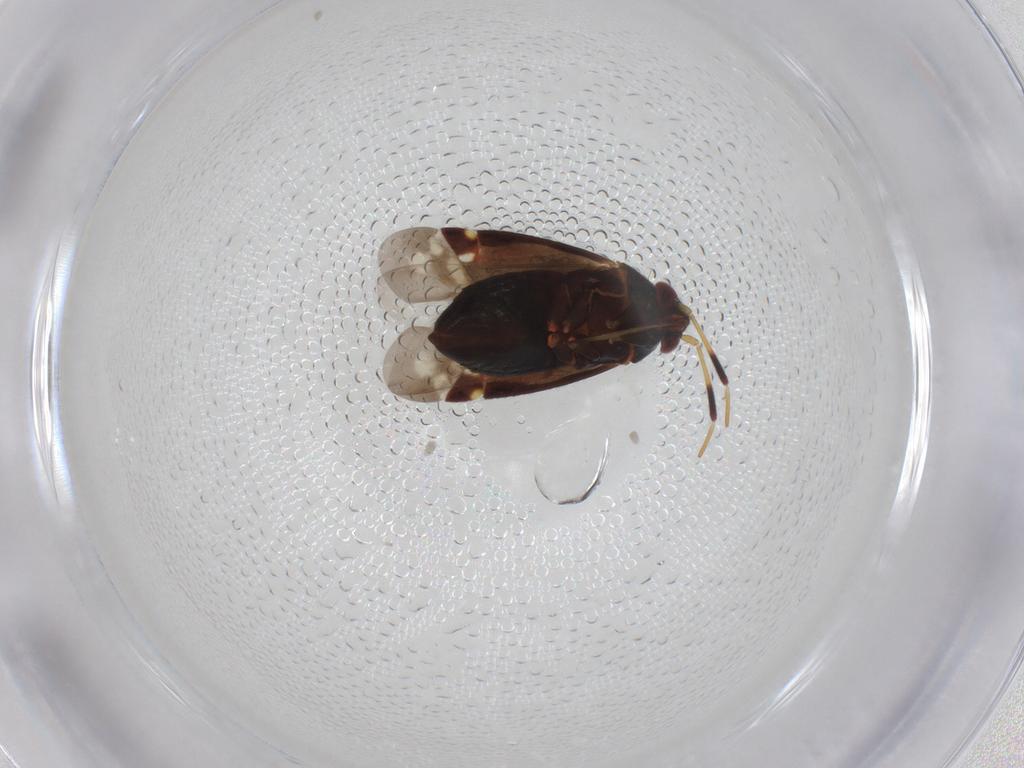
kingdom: Animalia
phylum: Arthropoda
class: Insecta
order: Hemiptera
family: Miridae
